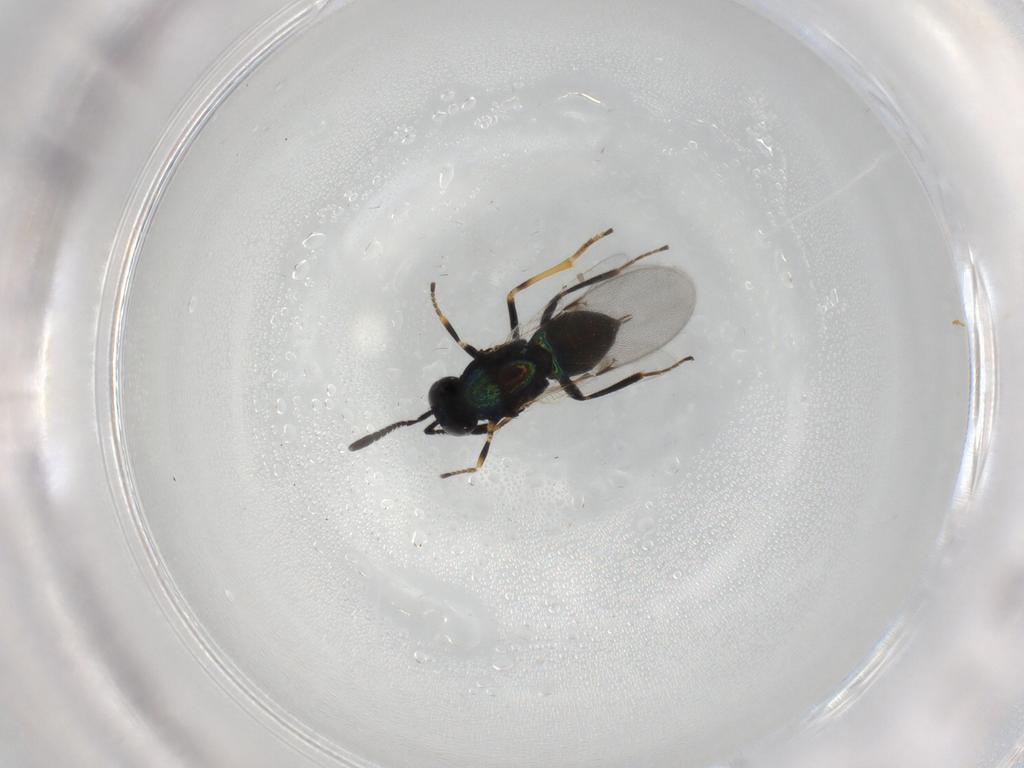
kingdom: Animalia
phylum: Arthropoda
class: Insecta
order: Hymenoptera
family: Encyrtidae
